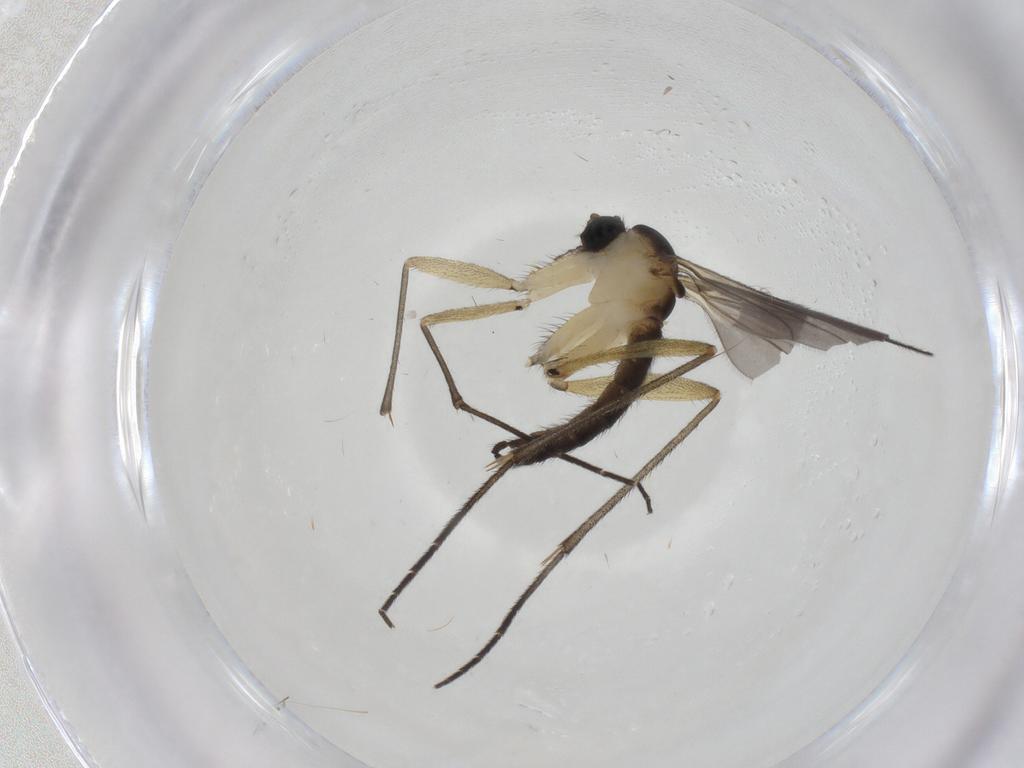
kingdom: Animalia
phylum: Arthropoda
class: Insecta
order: Diptera
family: Sciaridae
